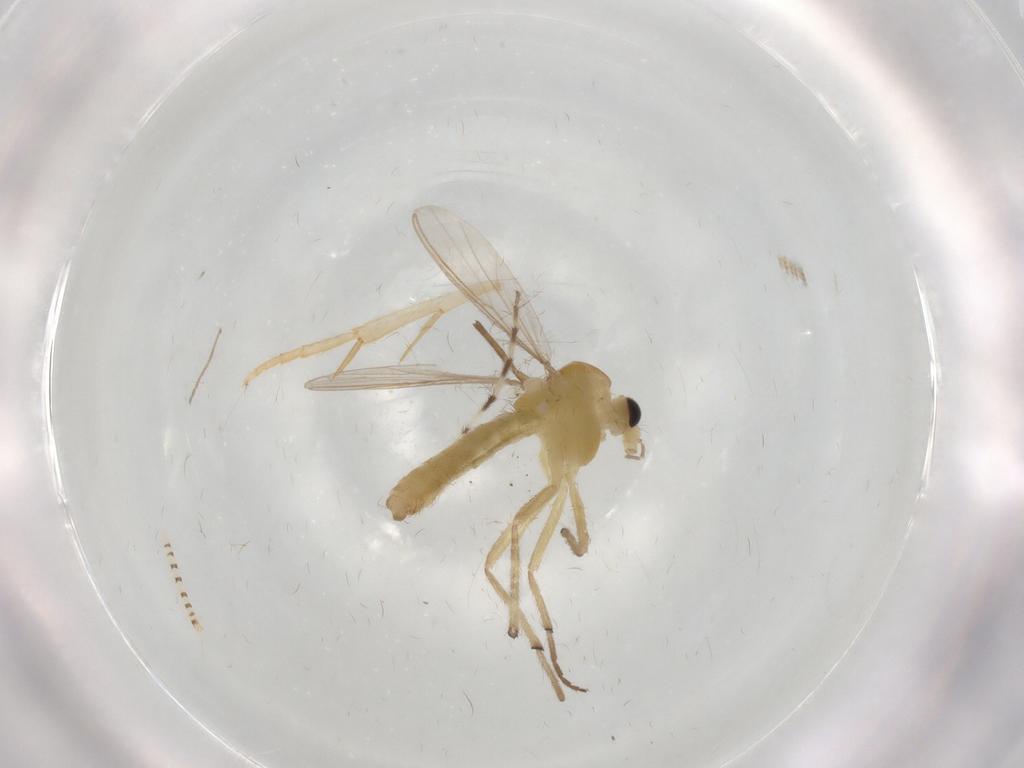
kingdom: Animalia
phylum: Arthropoda
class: Insecta
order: Diptera
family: Chironomidae
